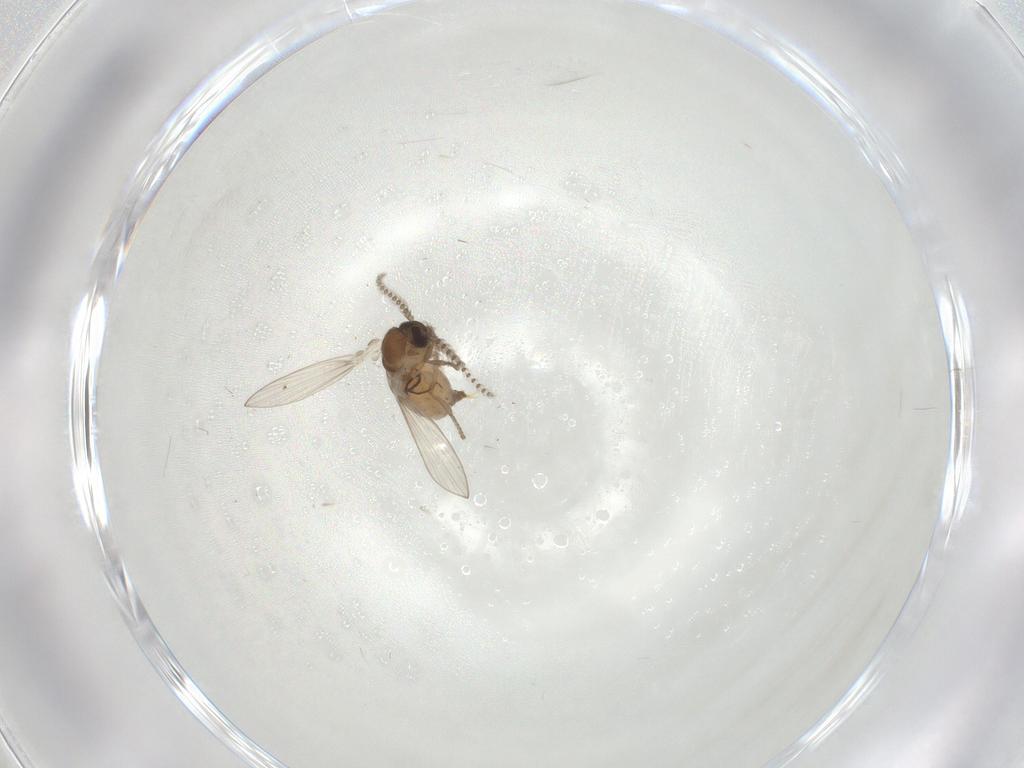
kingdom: Animalia
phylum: Arthropoda
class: Insecta
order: Diptera
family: Psychodidae
